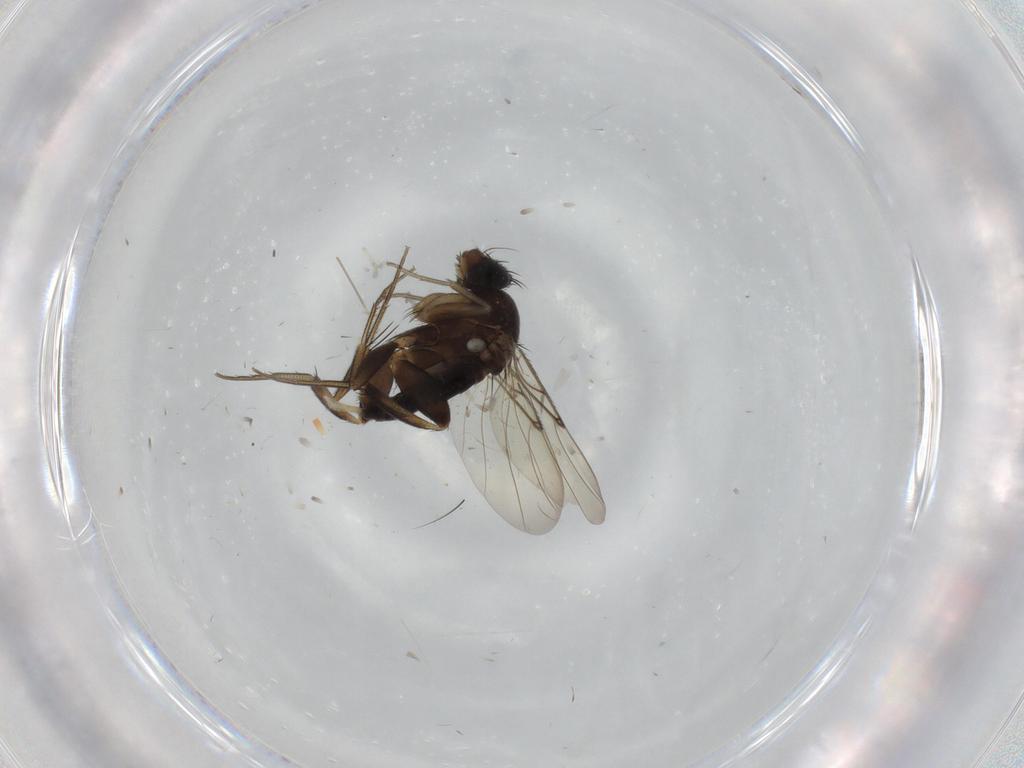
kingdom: Animalia
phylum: Arthropoda
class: Insecta
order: Diptera
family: Phoridae
